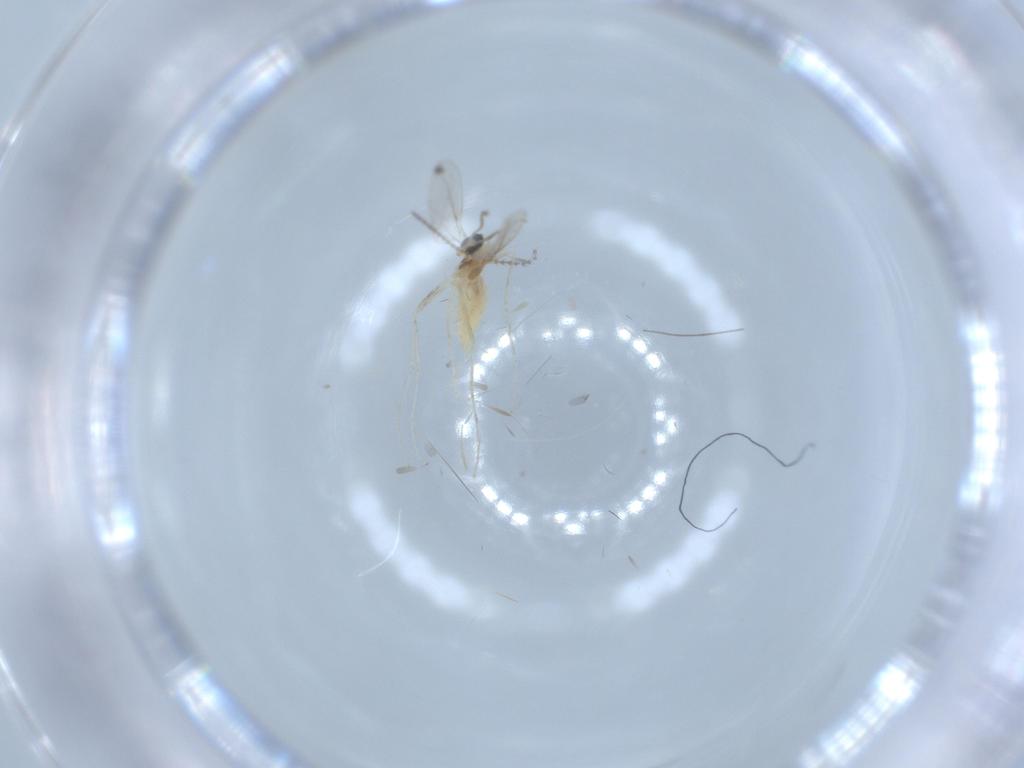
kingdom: Animalia
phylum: Arthropoda
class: Insecta
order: Diptera
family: Cecidomyiidae
